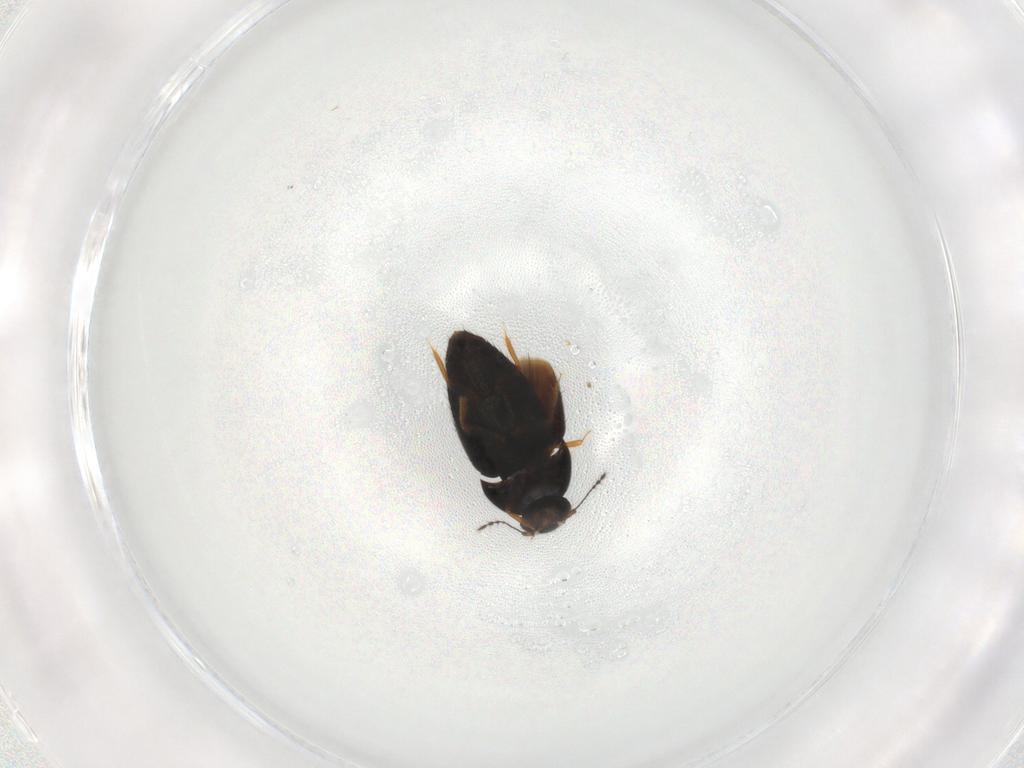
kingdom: Animalia
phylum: Arthropoda
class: Insecta
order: Coleoptera
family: Ptiliidae
